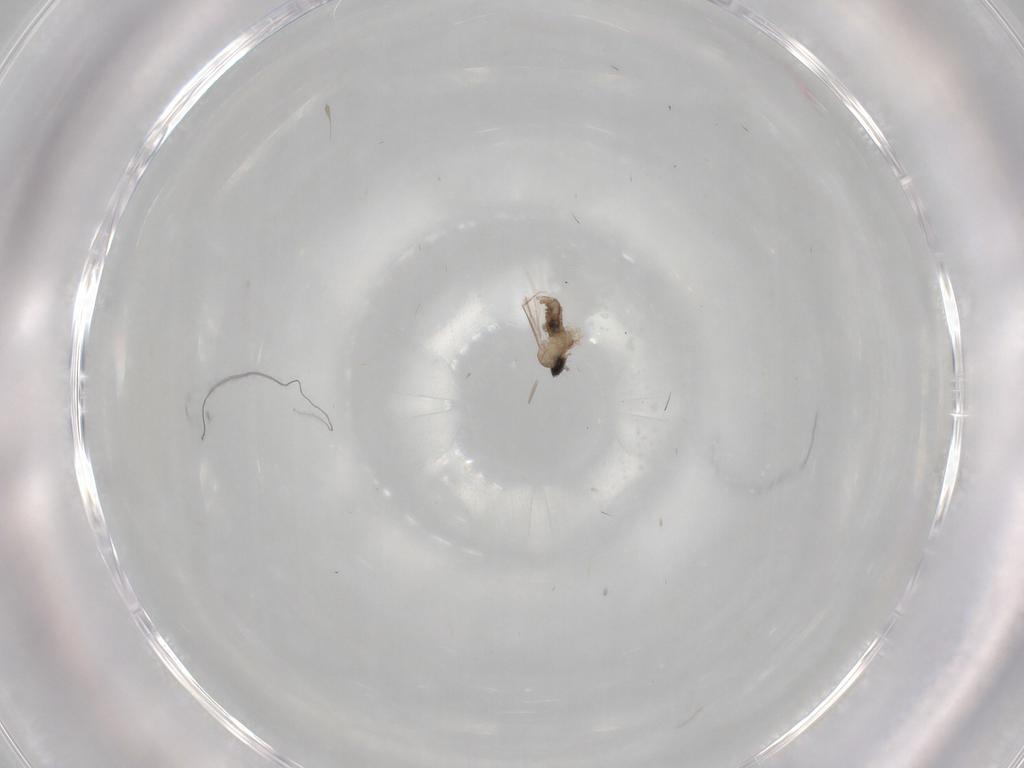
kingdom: Animalia
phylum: Arthropoda
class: Insecta
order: Diptera
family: Cecidomyiidae
